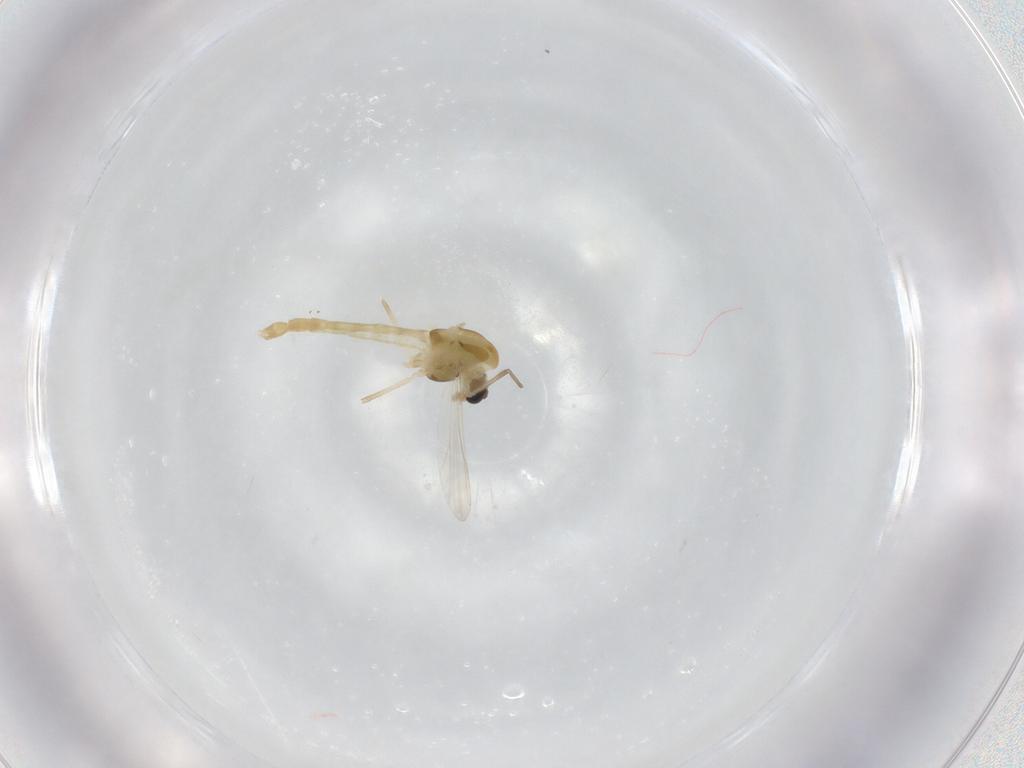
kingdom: Animalia
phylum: Arthropoda
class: Insecta
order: Diptera
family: Chironomidae
